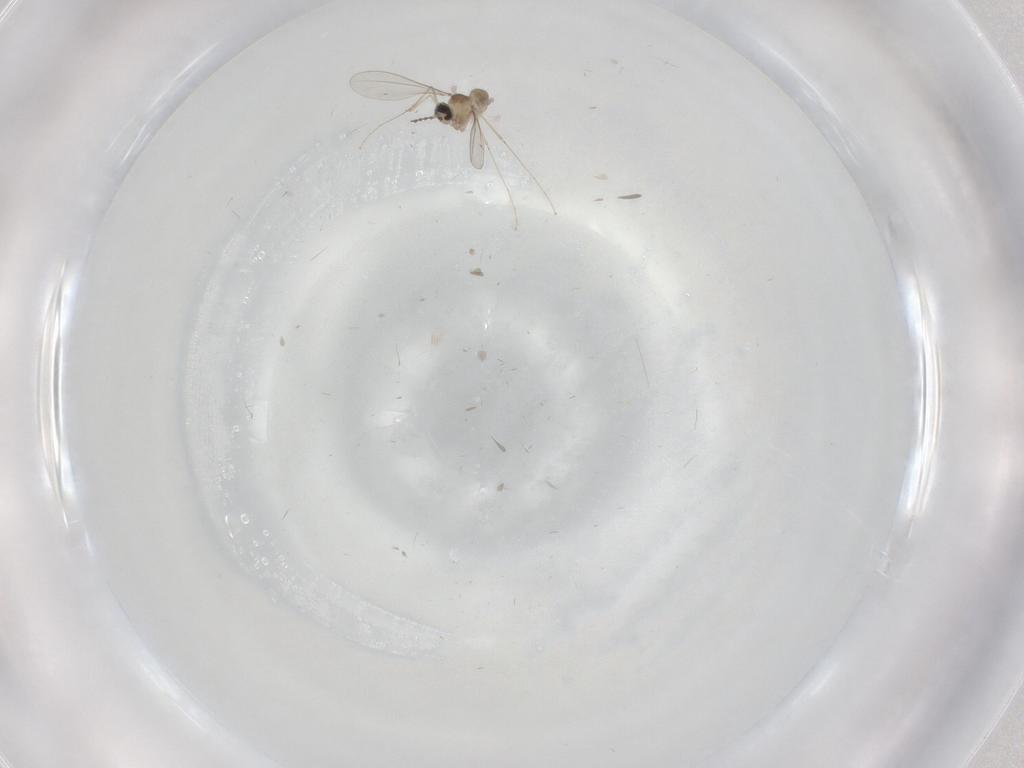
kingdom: Animalia
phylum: Arthropoda
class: Insecta
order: Diptera
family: Cecidomyiidae
